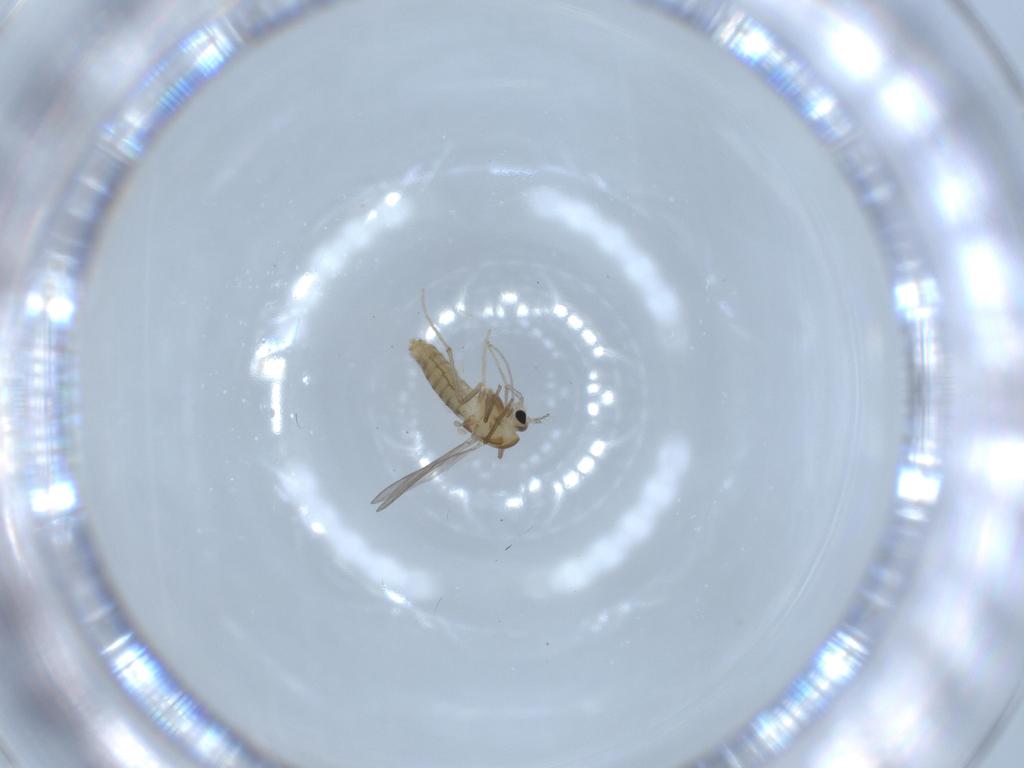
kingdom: Animalia
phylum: Arthropoda
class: Insecta
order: Diptera
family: Chironomidae
